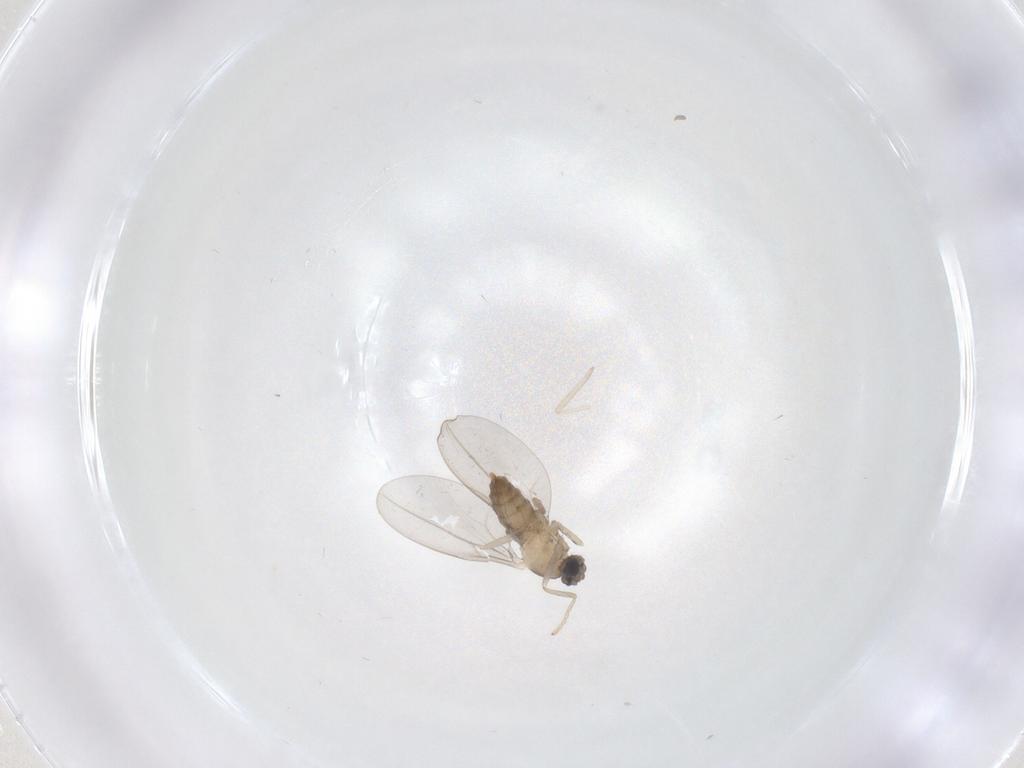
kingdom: Animalia
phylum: Arthropoda
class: Insecta
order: Diptera
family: Cecidomyiidae
